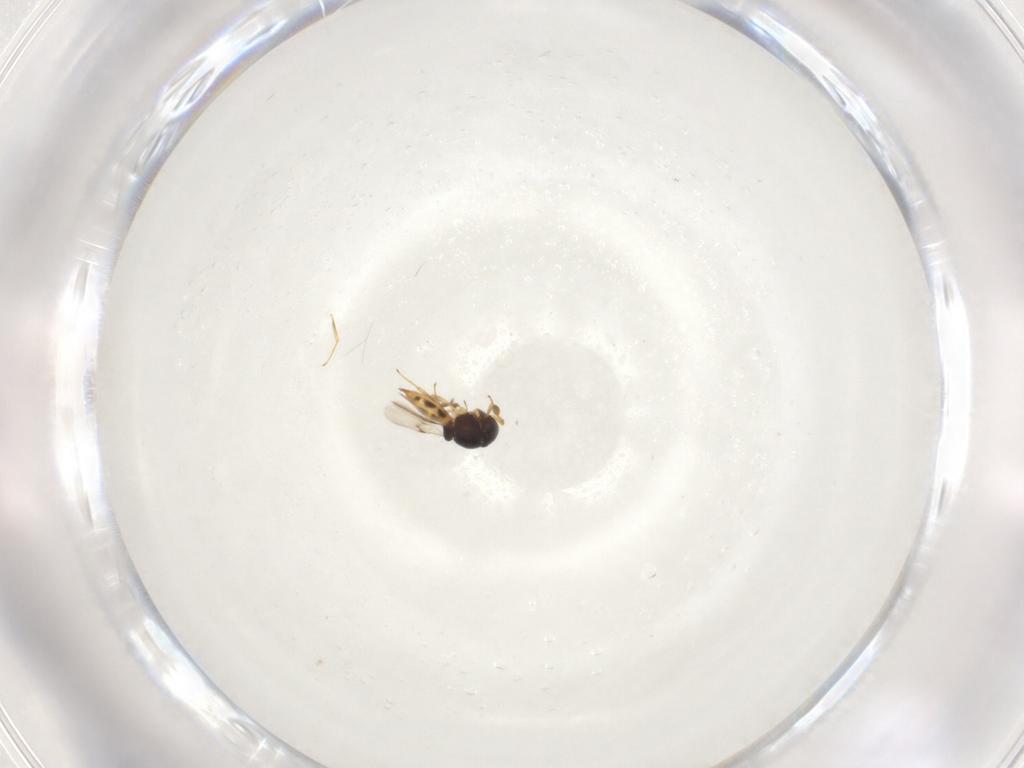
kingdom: Animalia
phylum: Arthropoda
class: Insecta
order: Hymenoptera
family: Scelionidae
